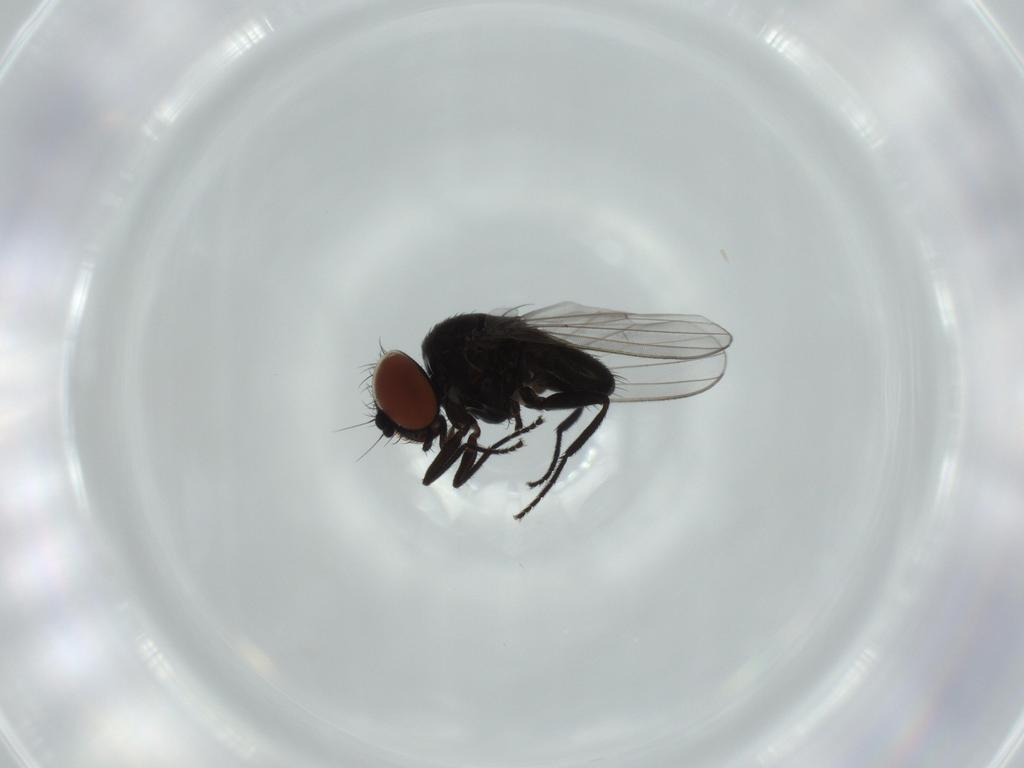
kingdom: Animalia
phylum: Arthropoda
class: Insecta
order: Diptera
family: Milichiidae
